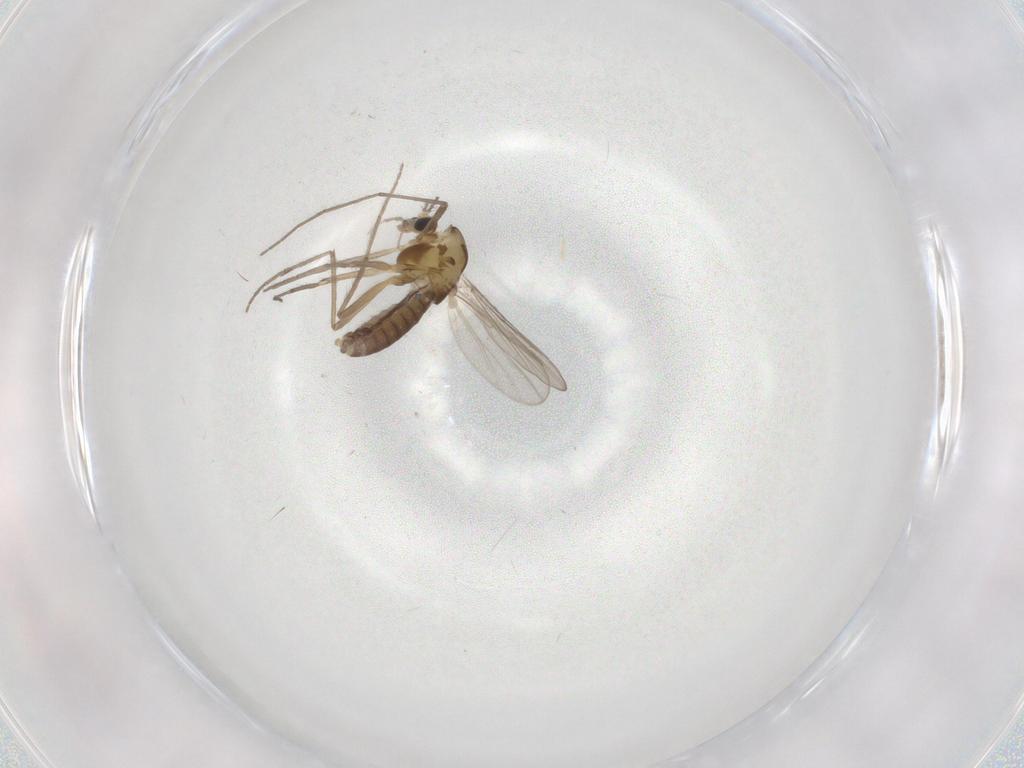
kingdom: Animalia
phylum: Arthropoda
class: Insecta
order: Diptera
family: Chironomidae
